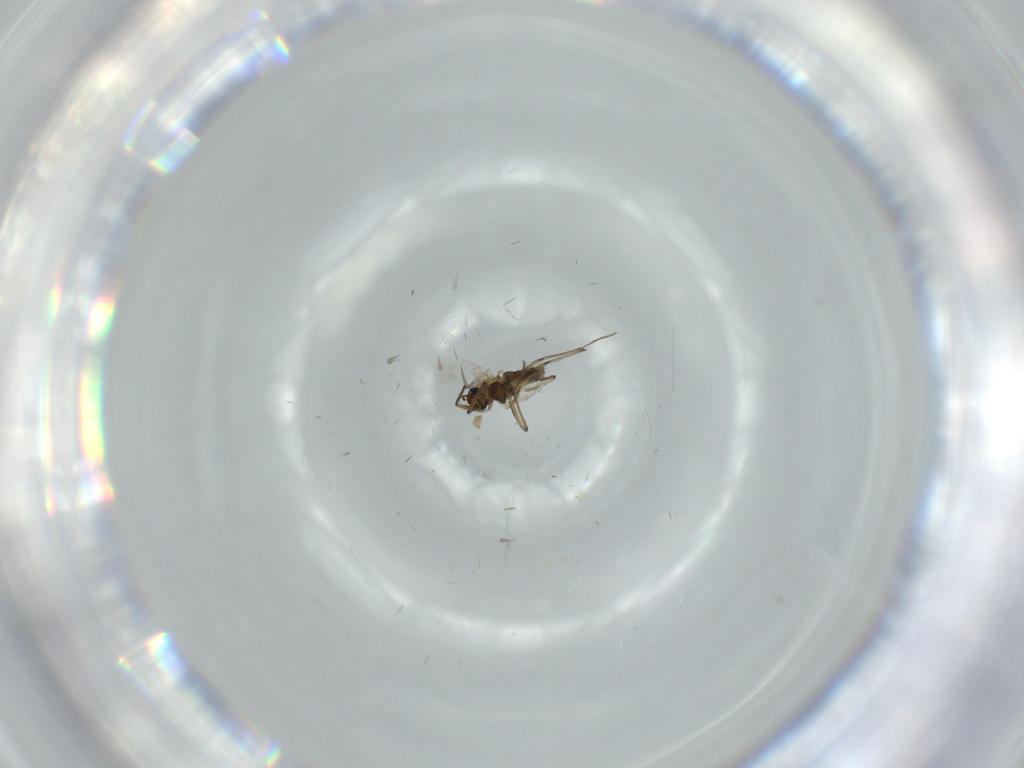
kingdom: Animalia
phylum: Arthropoda
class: Insecta
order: Diptera
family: Chironomidae
